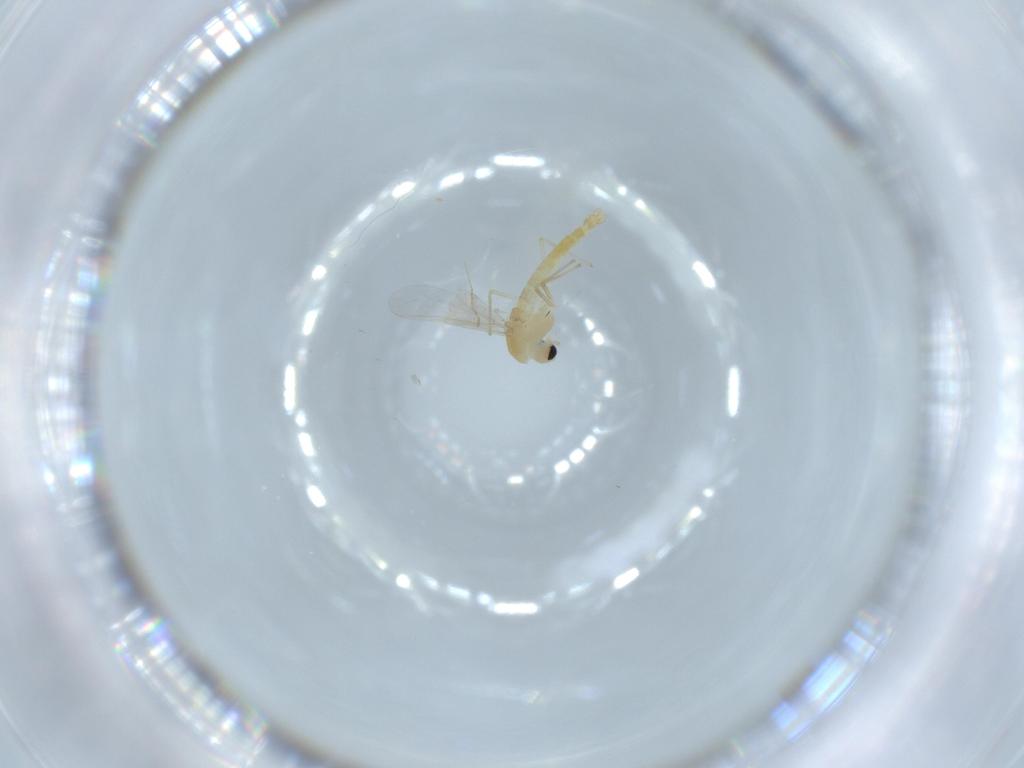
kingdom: Animalia
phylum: Arthropoda
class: Insecta
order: Diptera
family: Chironomidae
